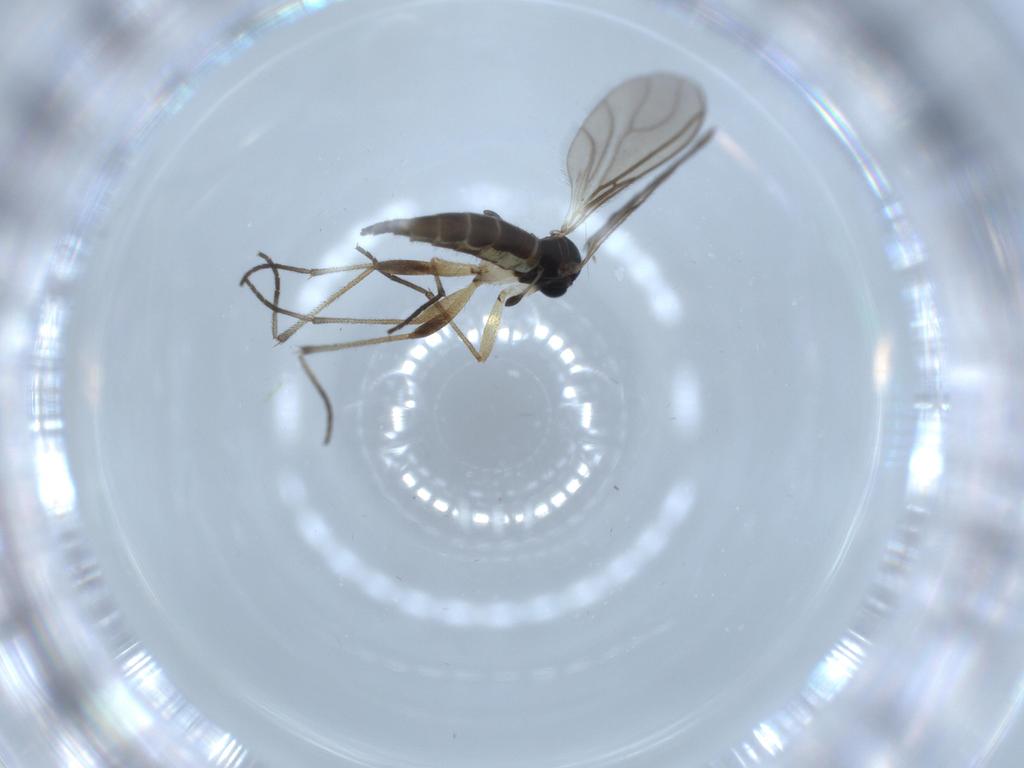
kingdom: Animalia
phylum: Arthropoda
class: Insecta
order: Diptera
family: Sciaridae
